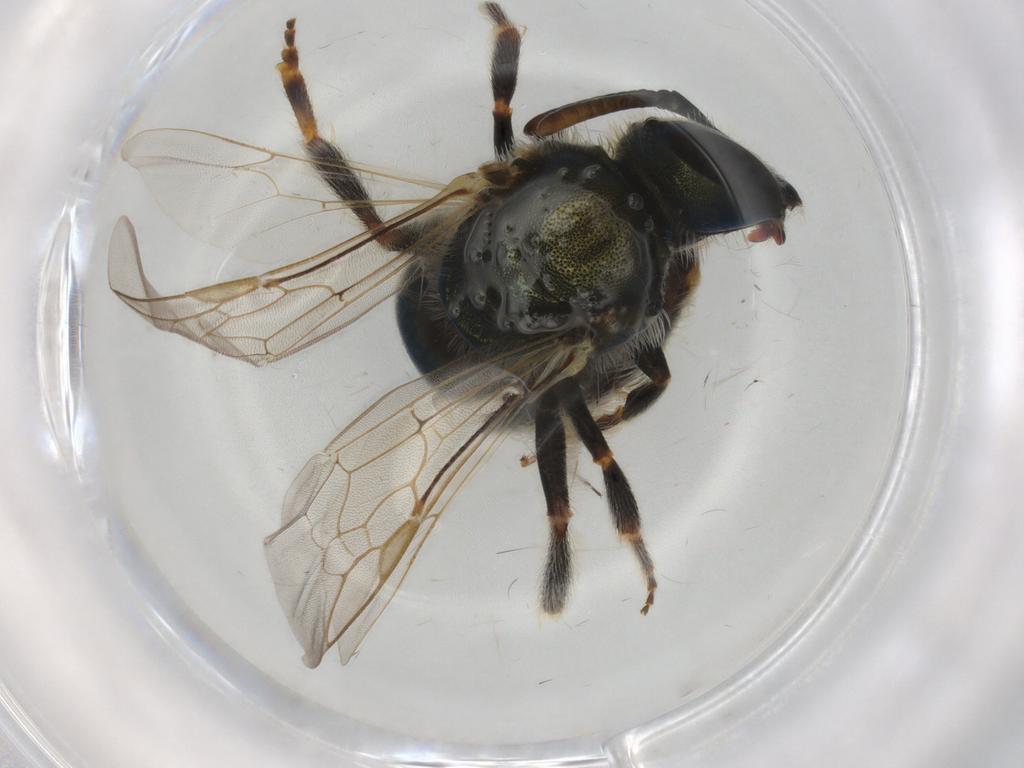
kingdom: Animalia
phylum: Arthropoda
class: Insecta
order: Hymenoptera
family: Halictidae
